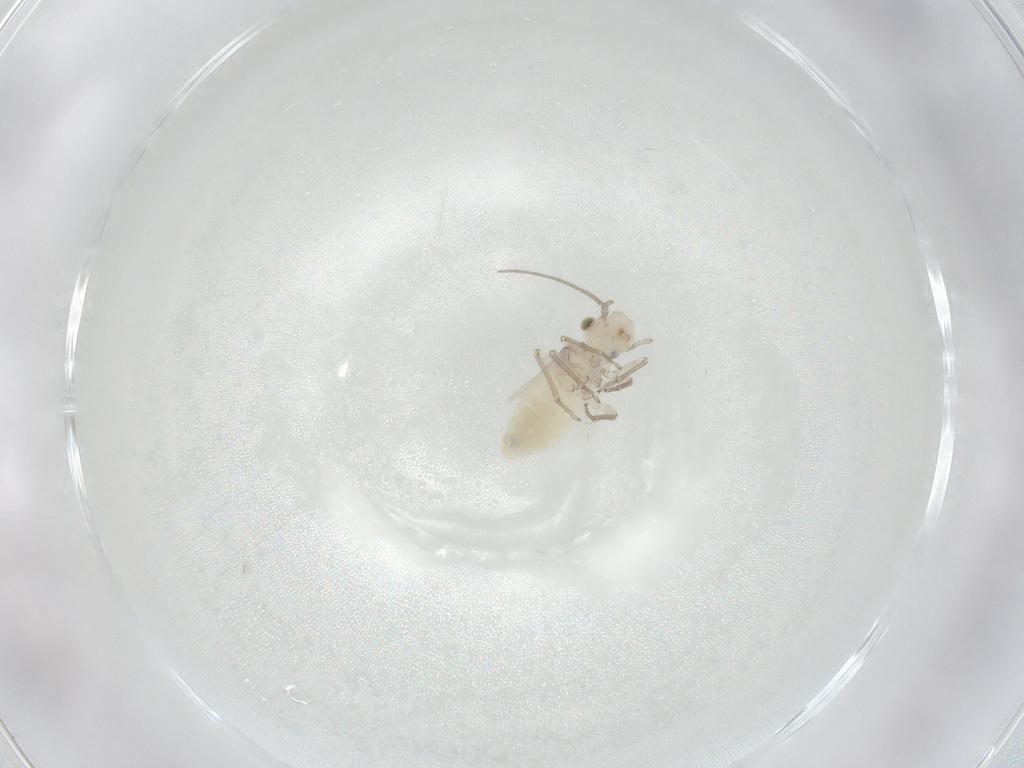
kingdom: Animalia
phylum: Arthropoda
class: Insecta
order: Psocodea
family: Caeciliusidae
